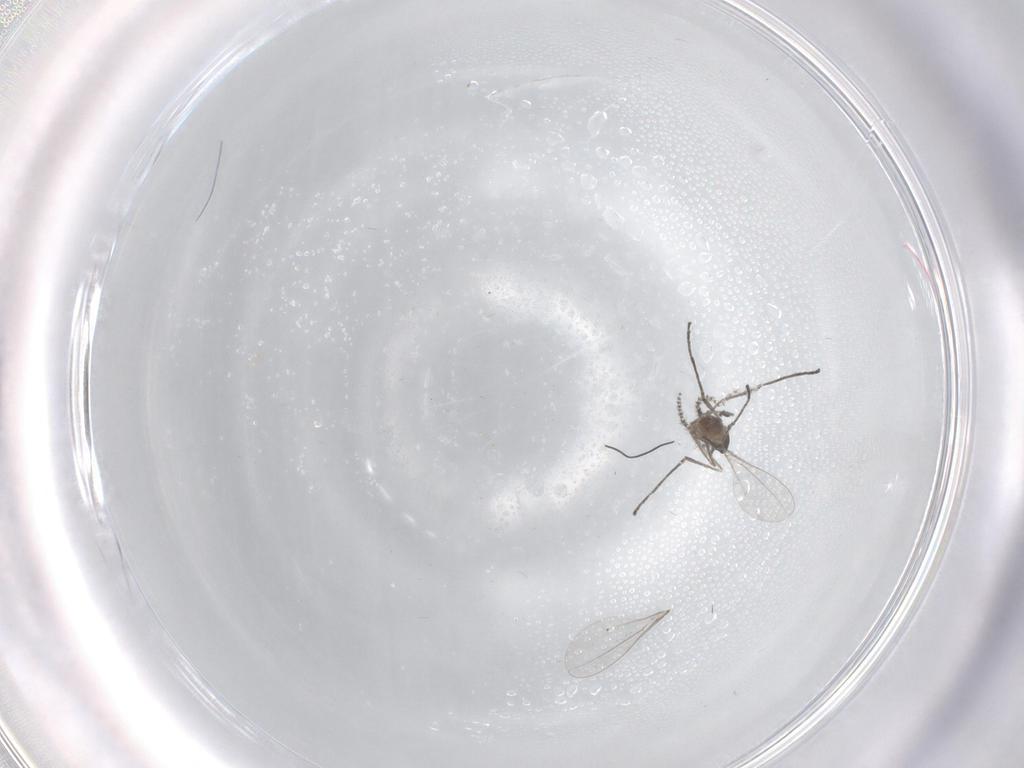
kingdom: Animalia
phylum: Arthropoda
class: Insecta
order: Diptera
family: Cecidomyiidae
